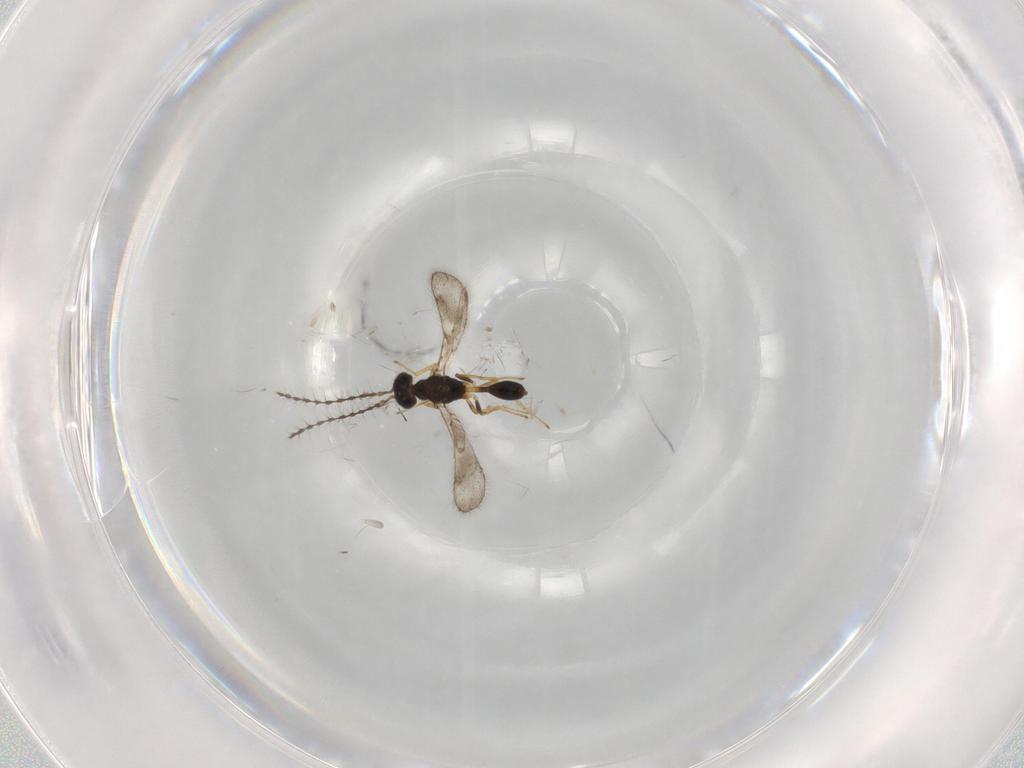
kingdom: Animalia
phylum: Arthropoda
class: Insecta
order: Hymenoptera
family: Diparidae
